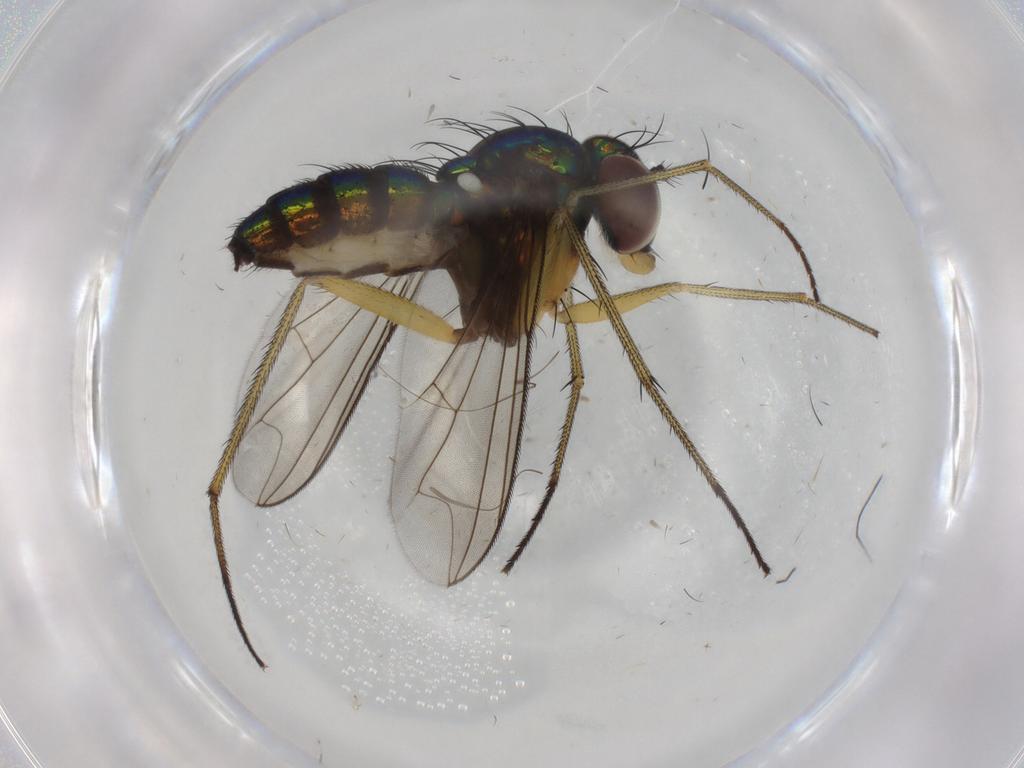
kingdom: Animalia
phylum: Arthropoda
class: Insecta
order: Diptera
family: Dolichopodidae
